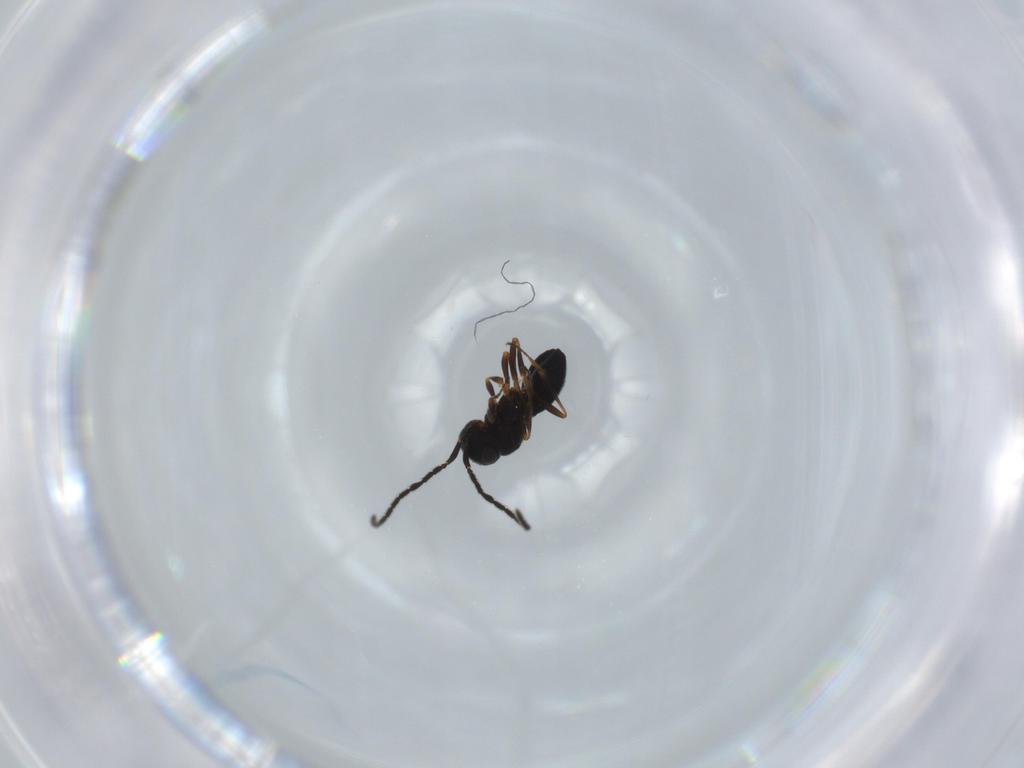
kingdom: Animalia
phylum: Arthropoda
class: Insecta
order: Hymenoptera
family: Scelionidae
